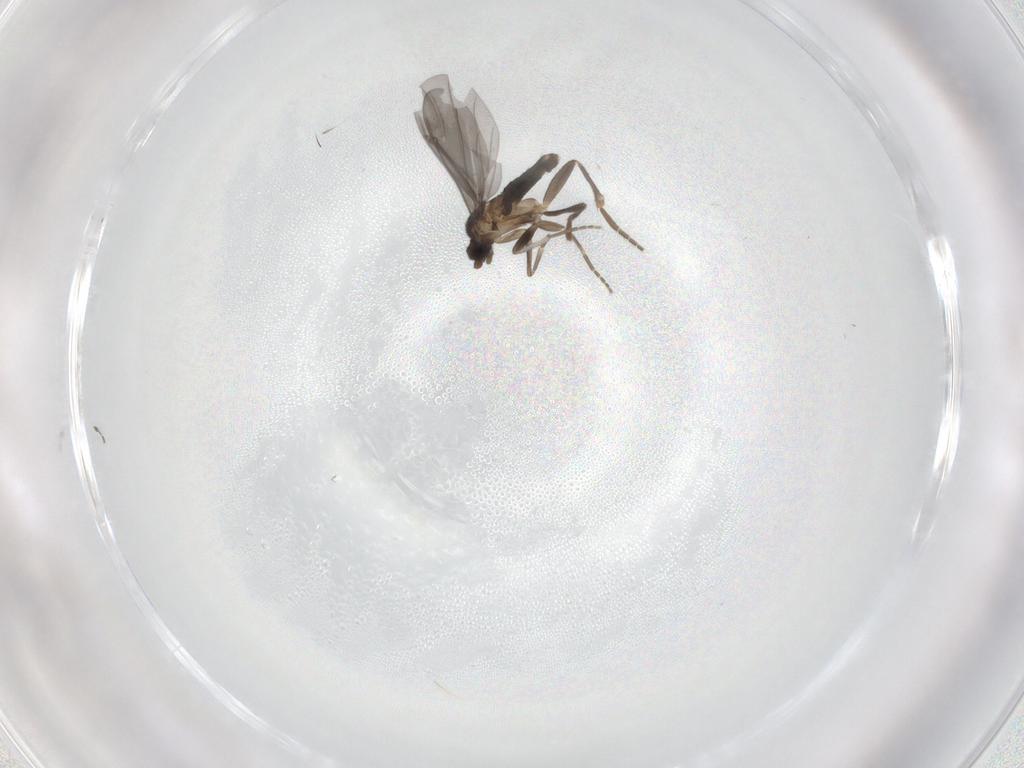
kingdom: Animalia
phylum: Arthropoda
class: Insecta
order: Diptera
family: Phoridae
